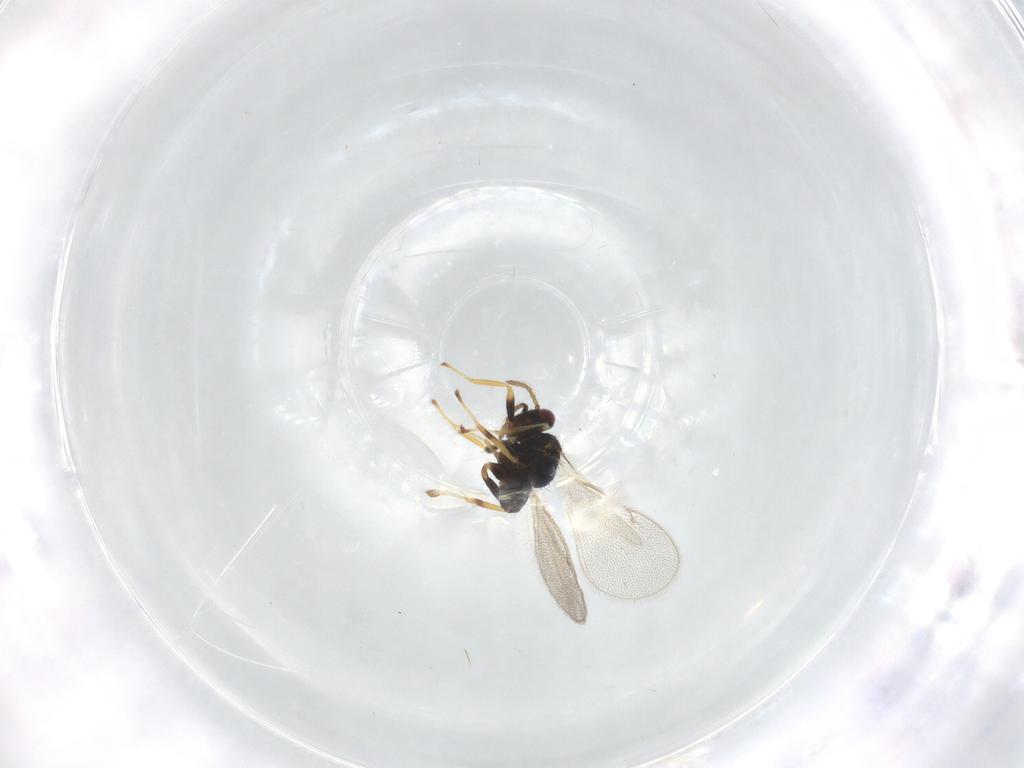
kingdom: Animalia
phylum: Arthropoda
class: Insecta
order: Hymenoptera
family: Eulophidae
